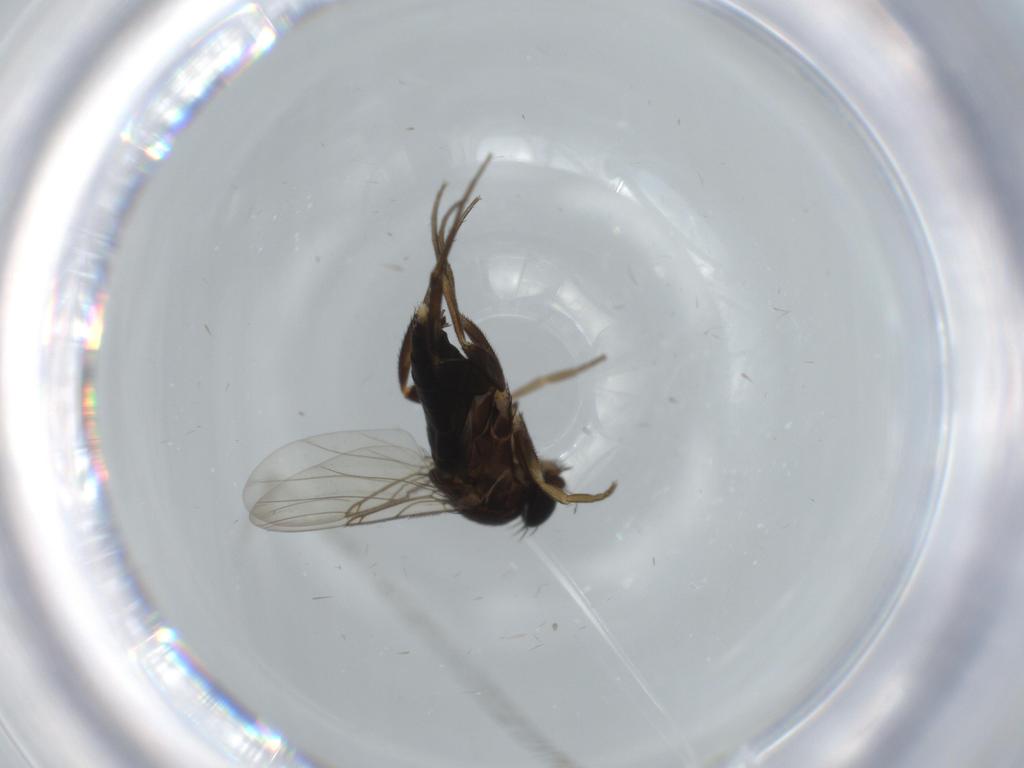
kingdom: Animalia
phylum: Arthropoda
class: Insecta
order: Diptera
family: Phoridae
